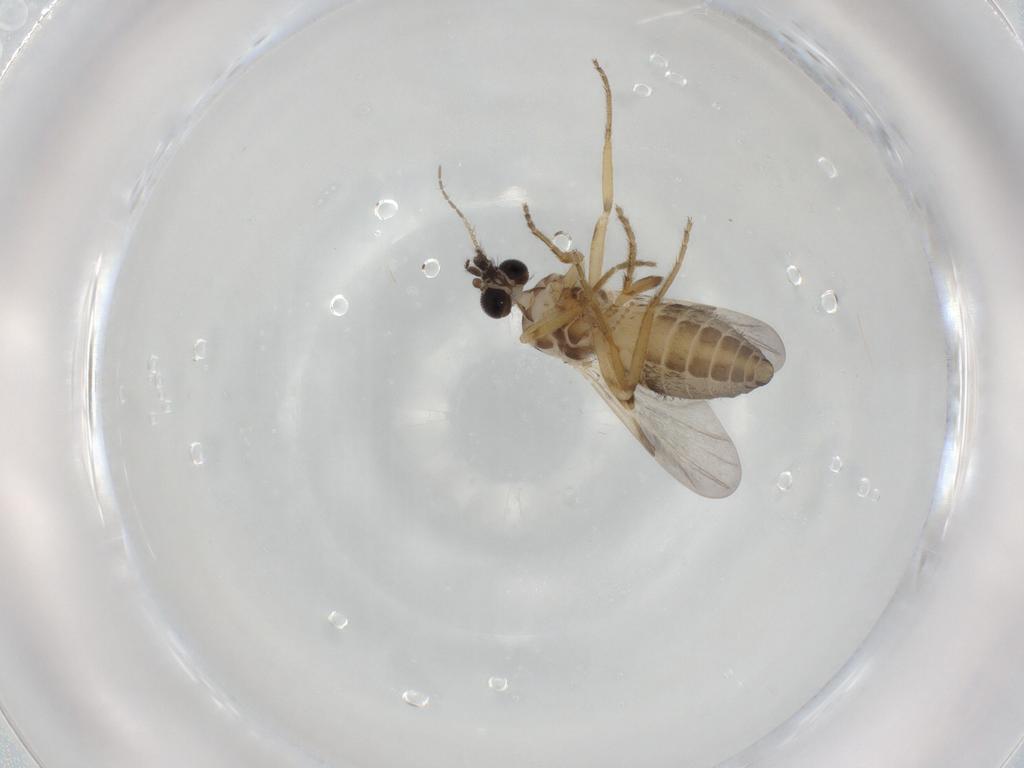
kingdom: Animalia
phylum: Arthropoda
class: Insecta
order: Diptera
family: Ceratopogonidae
